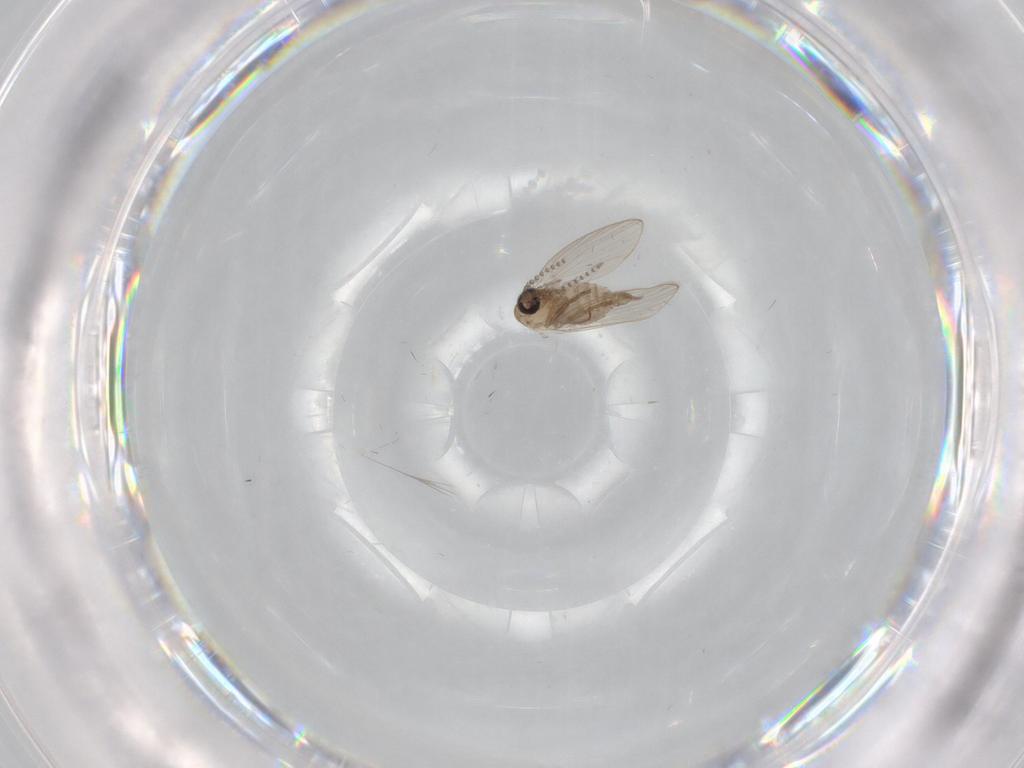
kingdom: Animalia
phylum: Arthropoda
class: Insecta
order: Diptera
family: Psychodidae
